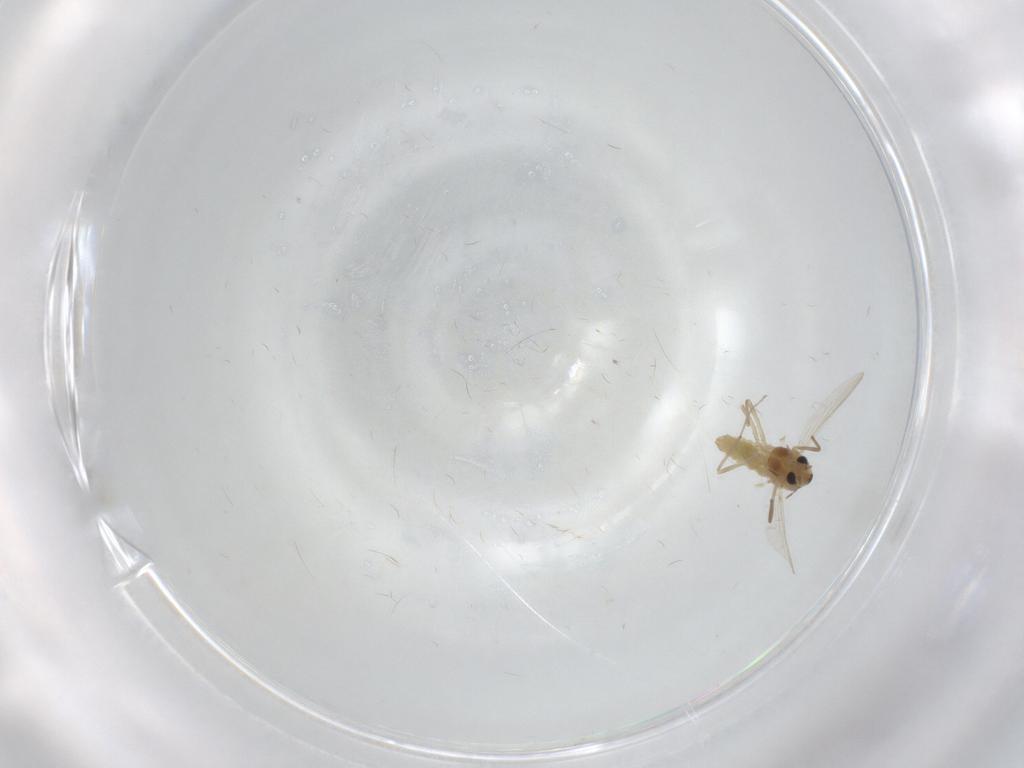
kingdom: Animalia
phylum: Arthropoda
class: Insecta
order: Diptera
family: Chironomidae
